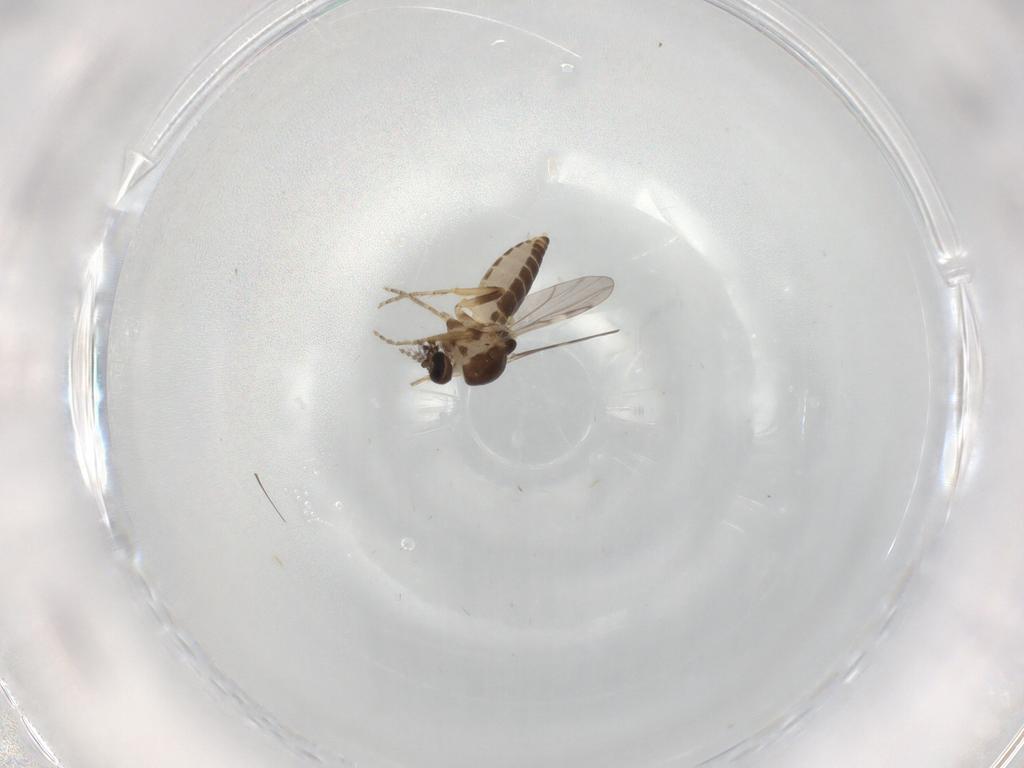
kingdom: Animalia
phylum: Arthropoda
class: Insecta
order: Diptera
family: Ceratopogonidae
